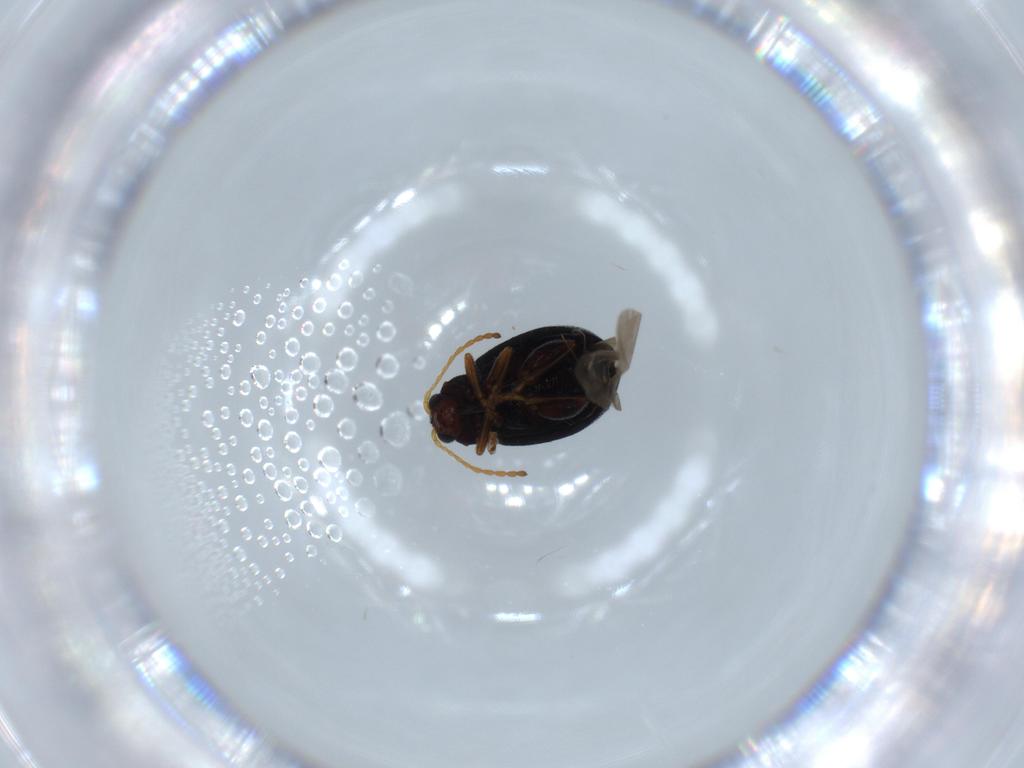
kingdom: Animalia
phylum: Arthropoda
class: Insecta
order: Coleoptera
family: Chrysomelidae
